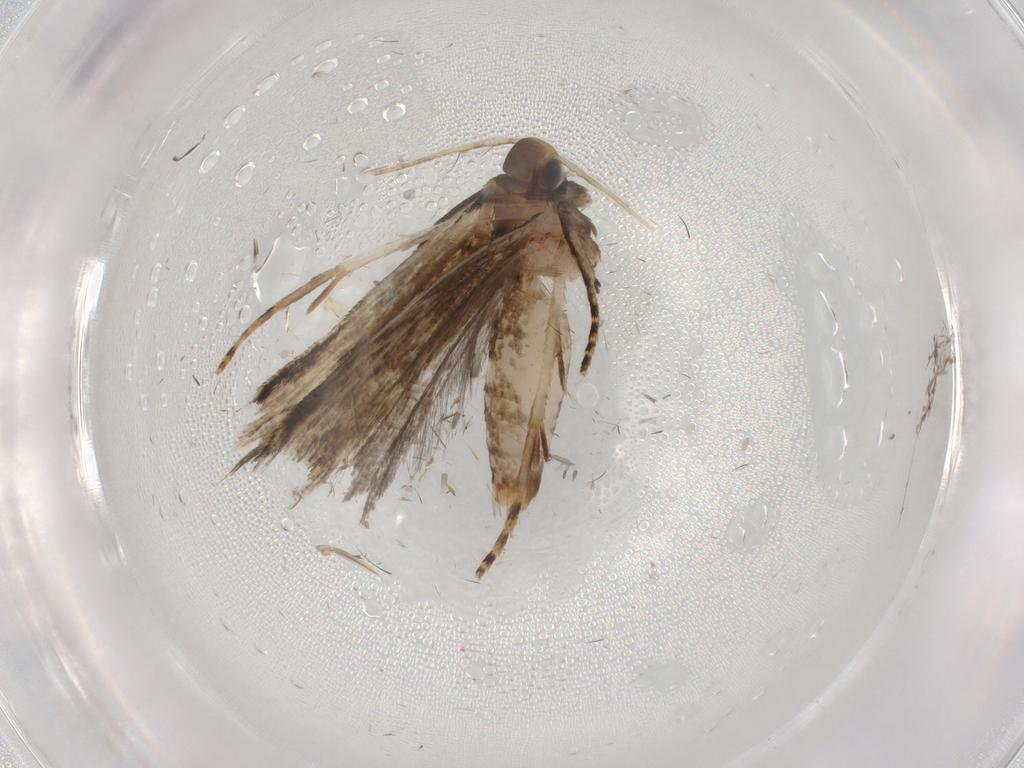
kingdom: Animalia
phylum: Arthropoda
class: Insecta
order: Lepidoptera
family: Gelechiidae
